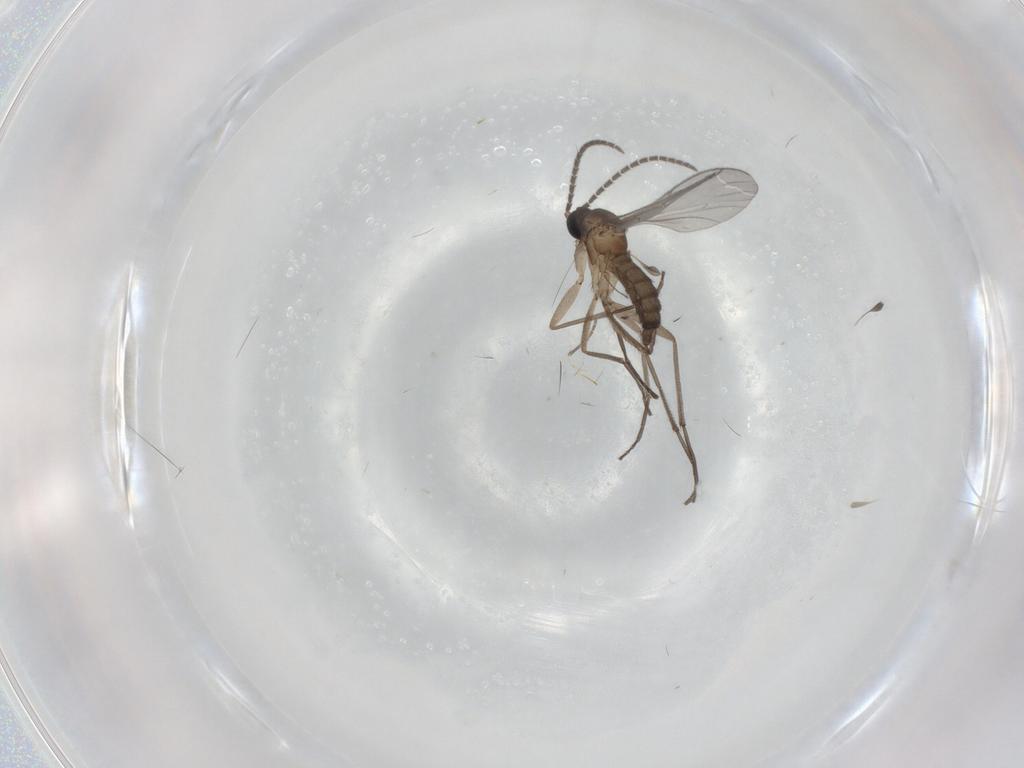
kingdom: Animalia
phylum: Arthropoda
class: Insecta
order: Diptera
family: Sciaridae
